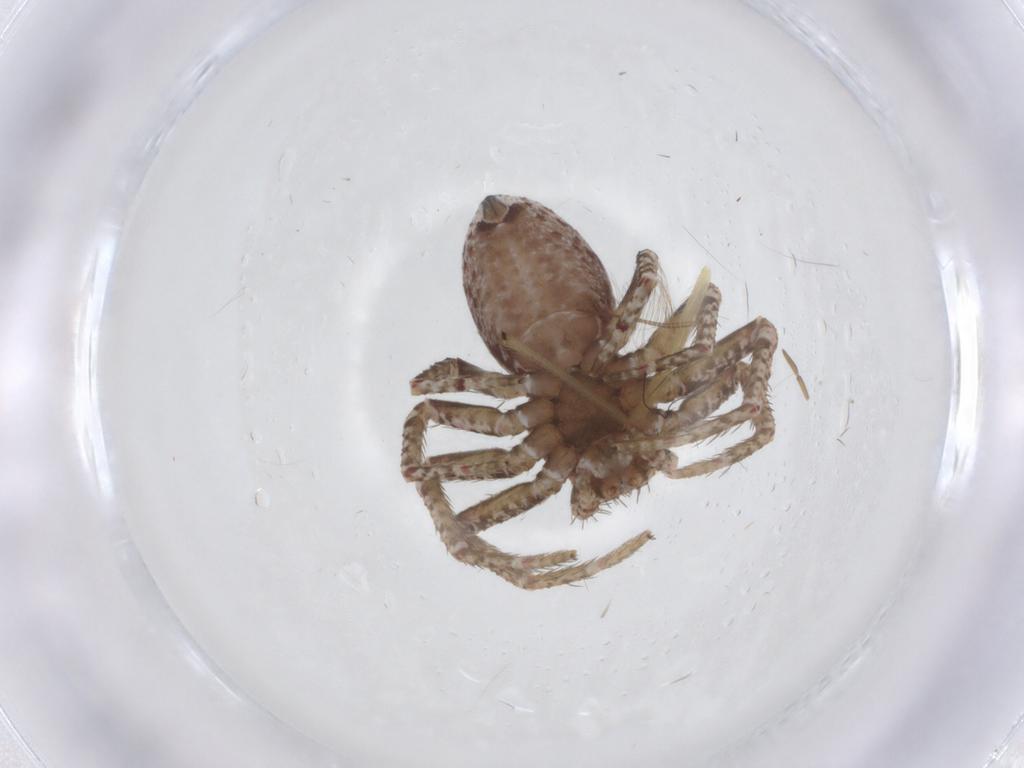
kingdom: Animalia
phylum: Arthropoda
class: Arachnida
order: Araneae
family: Thomisidae
